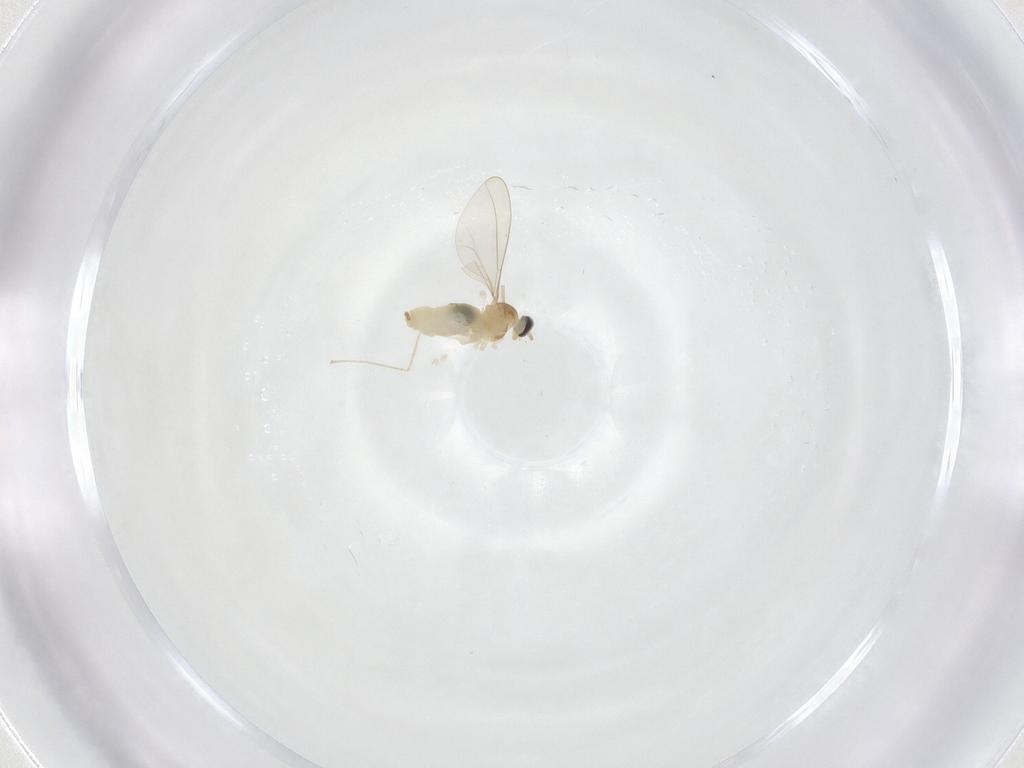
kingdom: Animalia
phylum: Arthropoda
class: Insecta
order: Diptera
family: Cecidomyiidae
